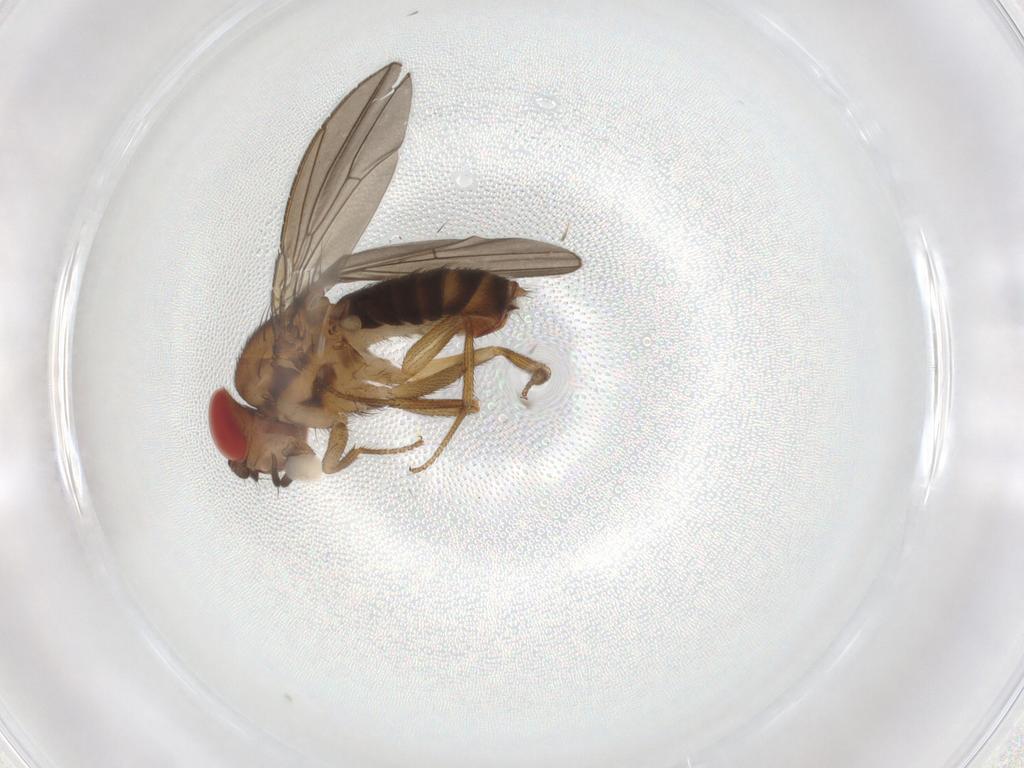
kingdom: Animalia
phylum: Arthropoda
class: Insecta
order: Diptera
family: Drosophilidae
